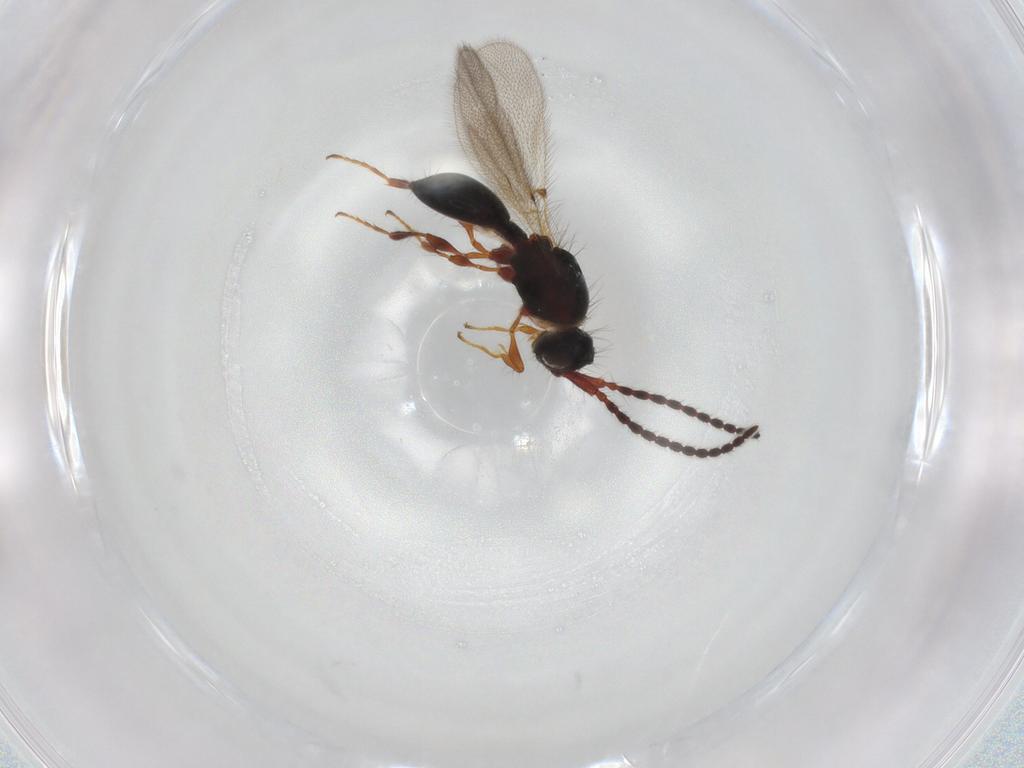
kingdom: Animalia
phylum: Arthropoda
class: Insecta
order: Hymenoptera
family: Diapriidae
